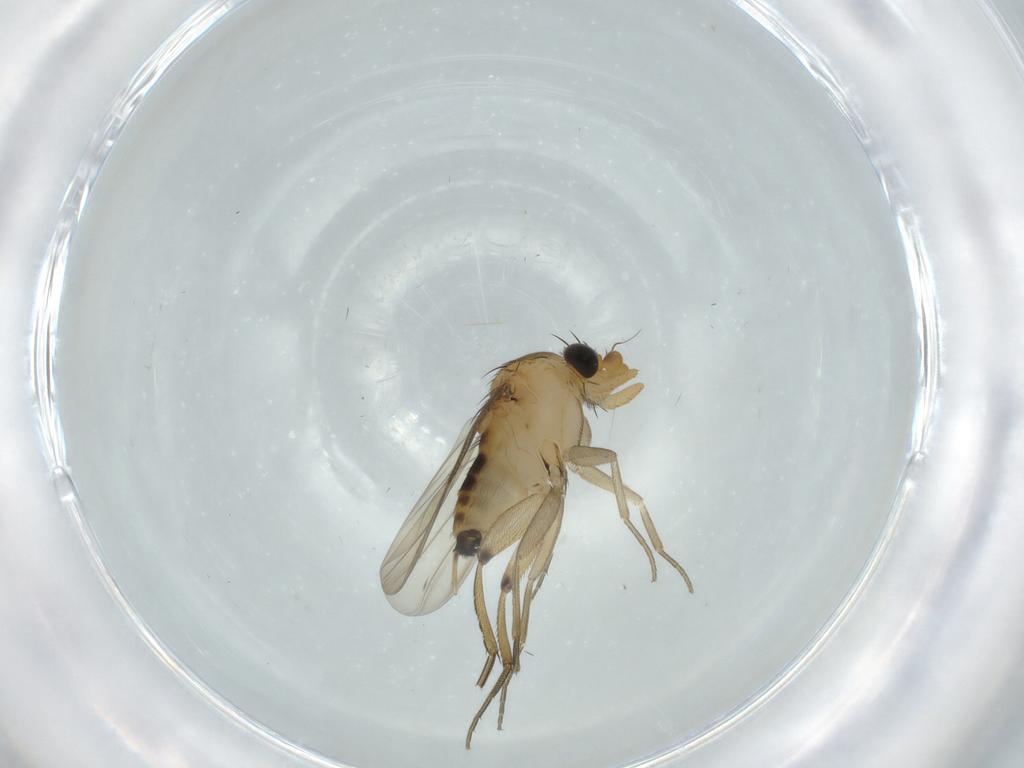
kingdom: Animalia
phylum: Arthropoda
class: Insecta
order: Diptera
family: Phoridae
